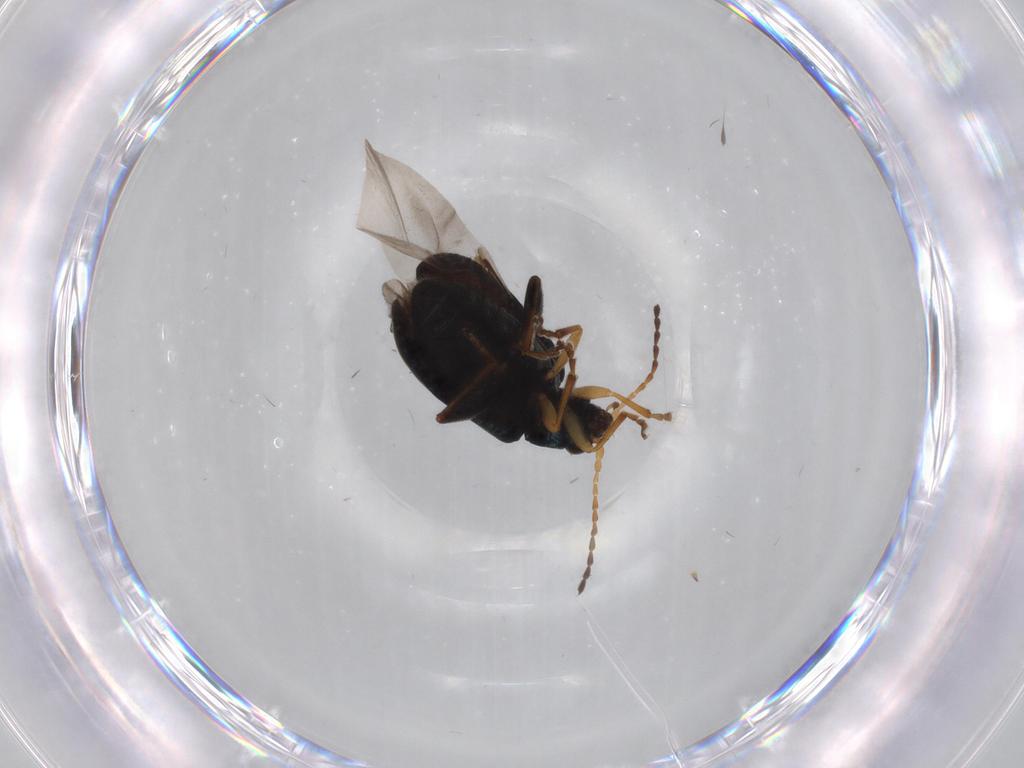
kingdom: Animalia
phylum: Arthropoda
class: Insecta
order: Coleoptera
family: Chrysomelidae
